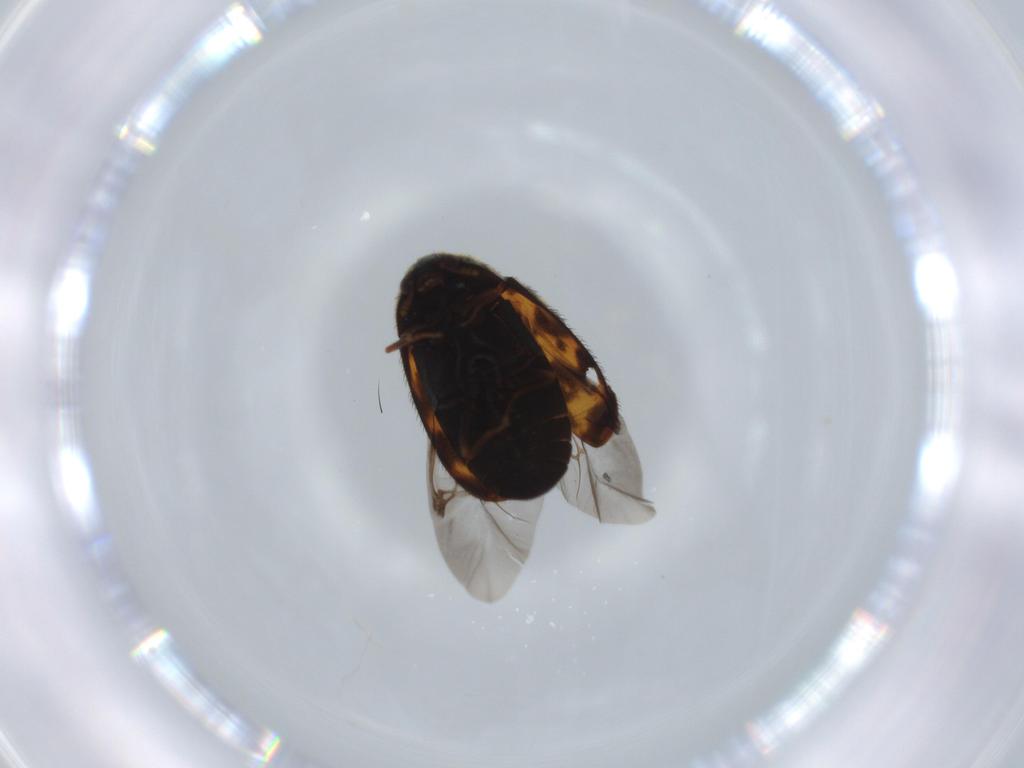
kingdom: Animalia
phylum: Arthropoda
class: Insecta
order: Coleoptera
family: Dermestidae
